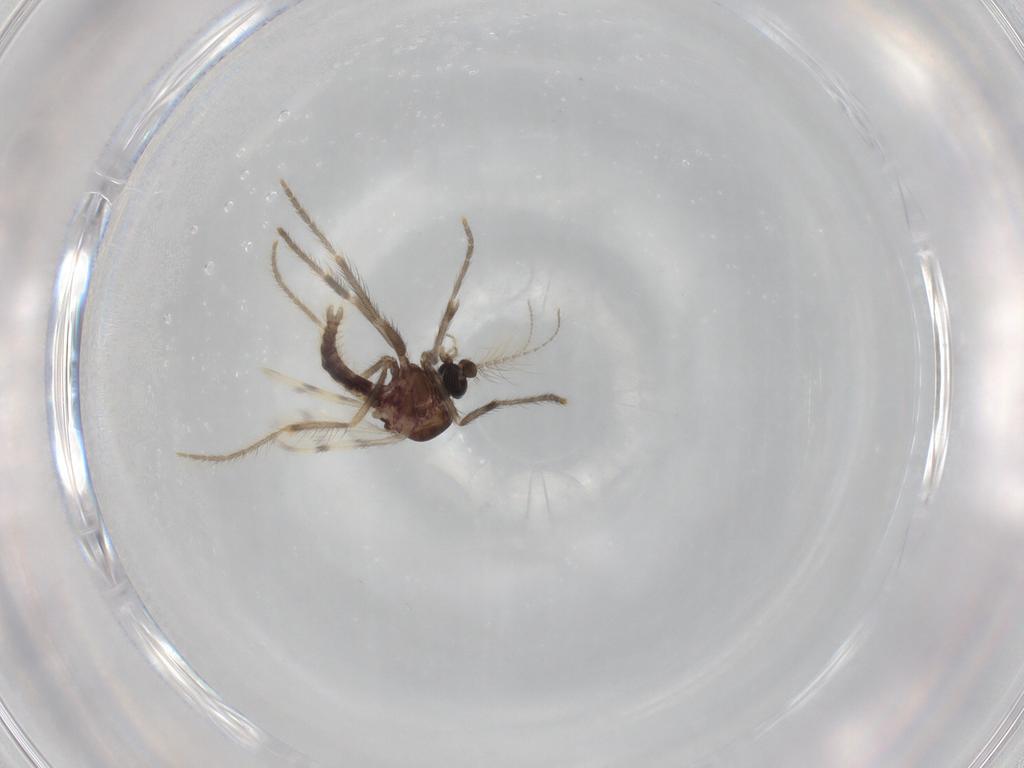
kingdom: Animalia
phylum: Arthropoda
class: Insecta
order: Diptera
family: Corethrellidae
